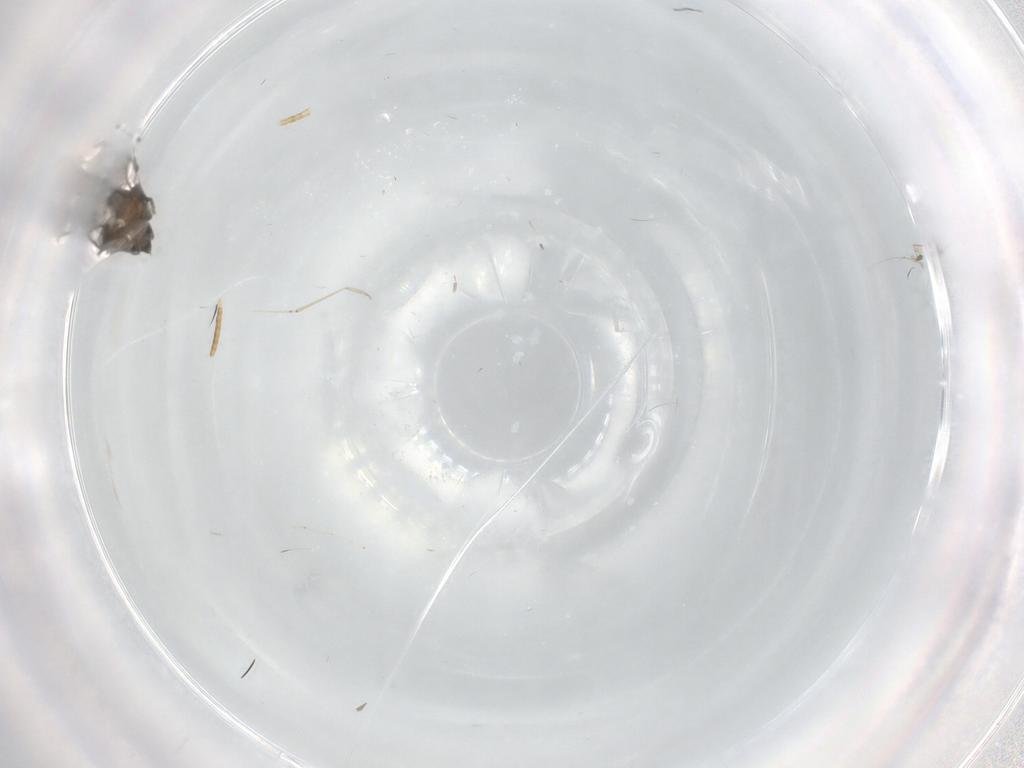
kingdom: Animalia
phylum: Arthropoda
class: Insecta
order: Diptera
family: Cecidomyiidae
